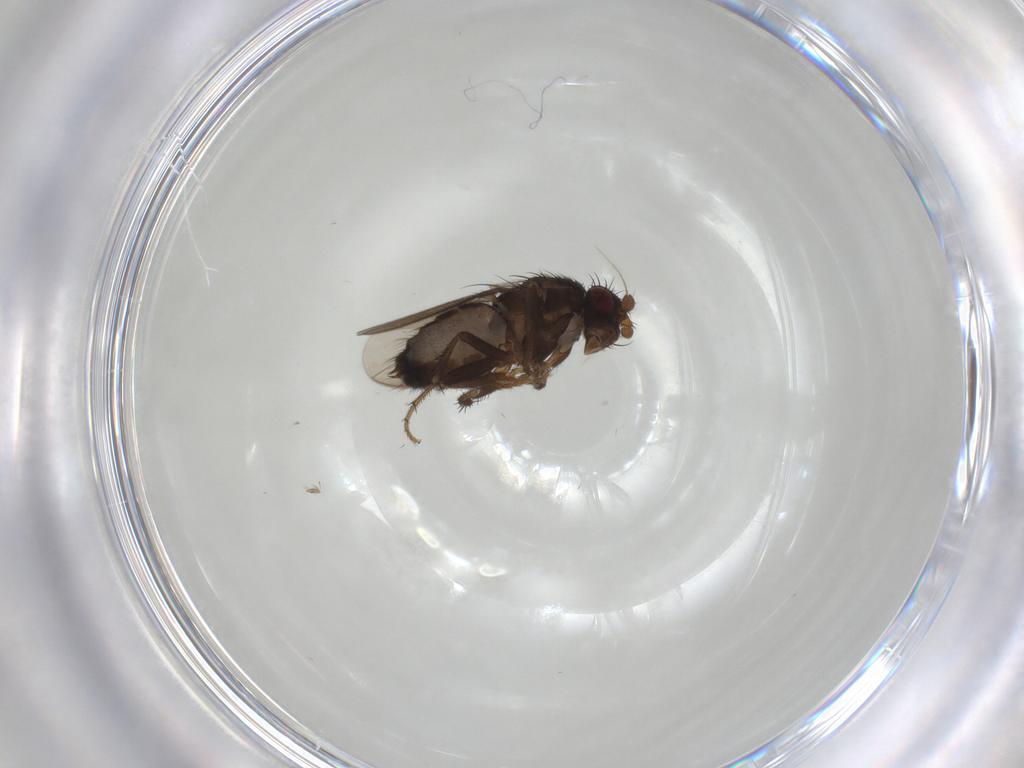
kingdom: Animalia
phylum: Arthropoda
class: Insecta
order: Diptera
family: Psychodidae
